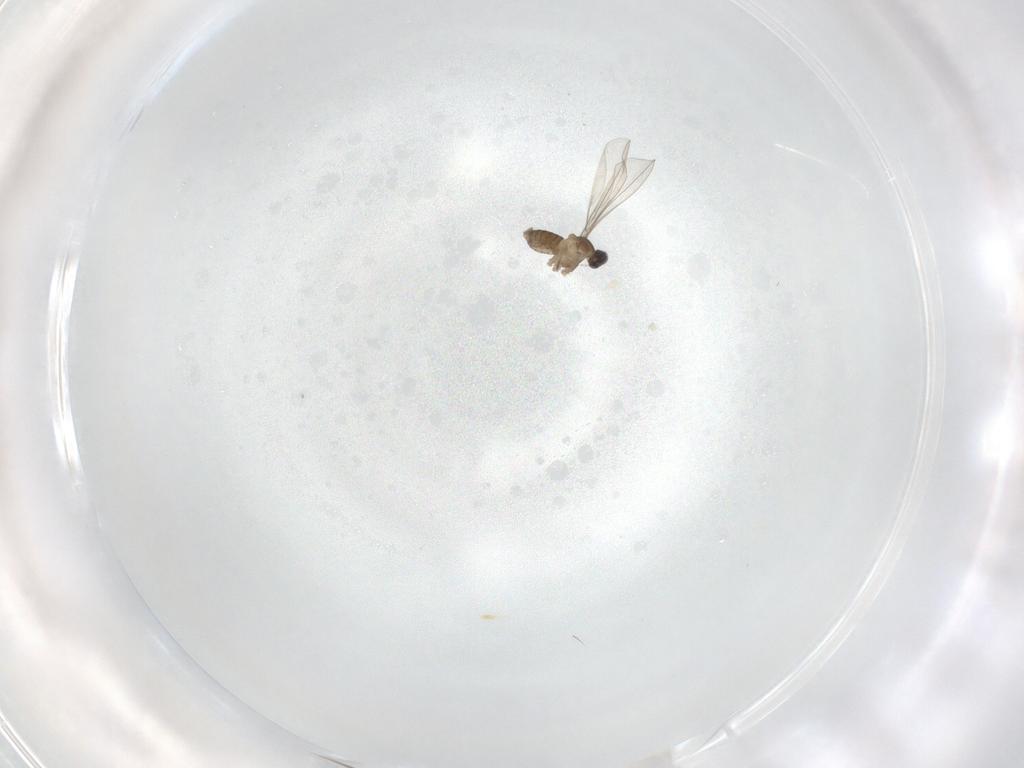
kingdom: Animalia
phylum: Arthropoda
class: Insecta
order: Diptera
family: Cecidomyiidae
